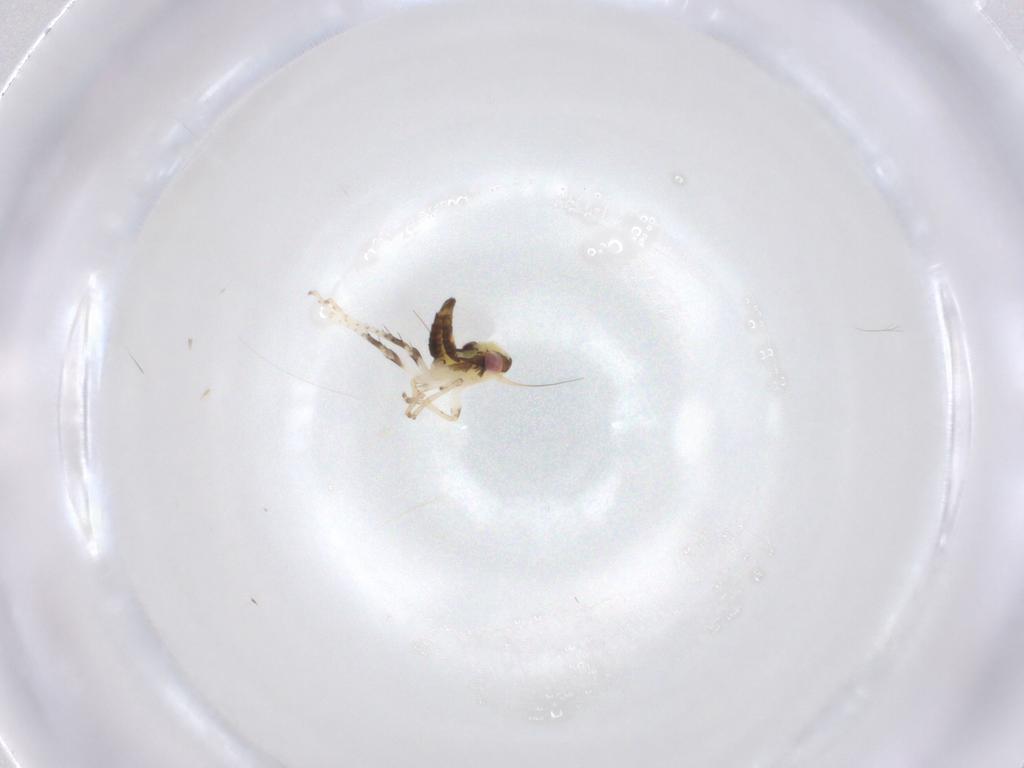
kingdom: Animalia
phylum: Arthropoda
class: Insecta
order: Hemiptera
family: Cicadellidae
